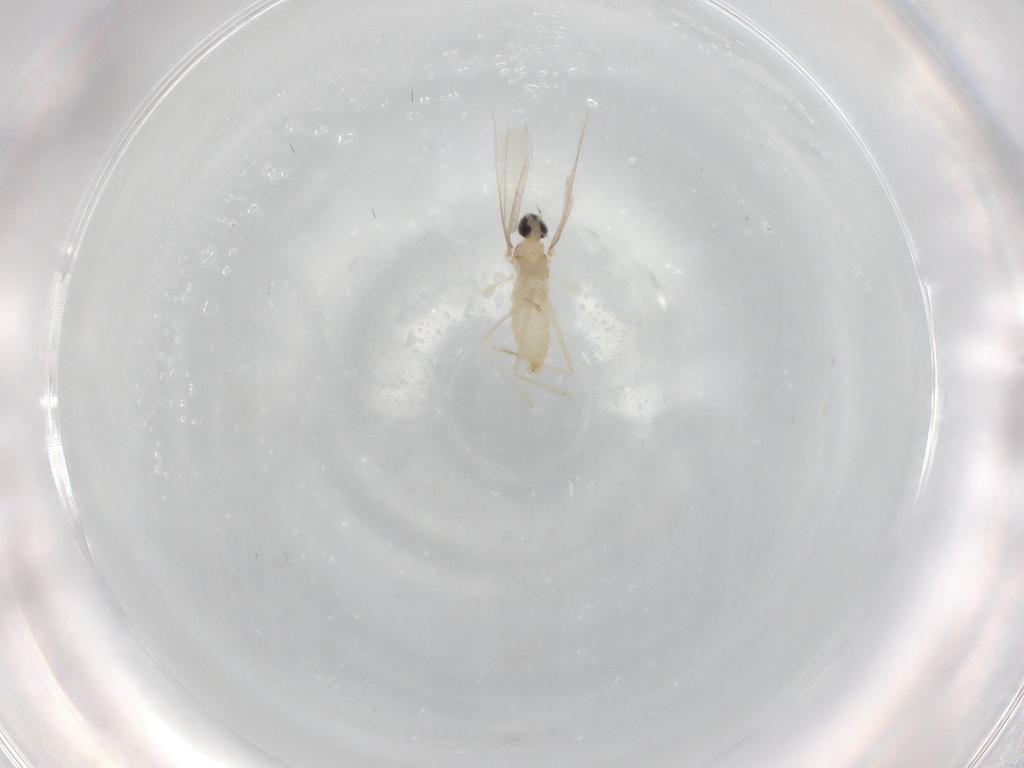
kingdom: Animalia
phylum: Arthropoda
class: Insecta
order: Diptera
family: Cecidomyiidae
